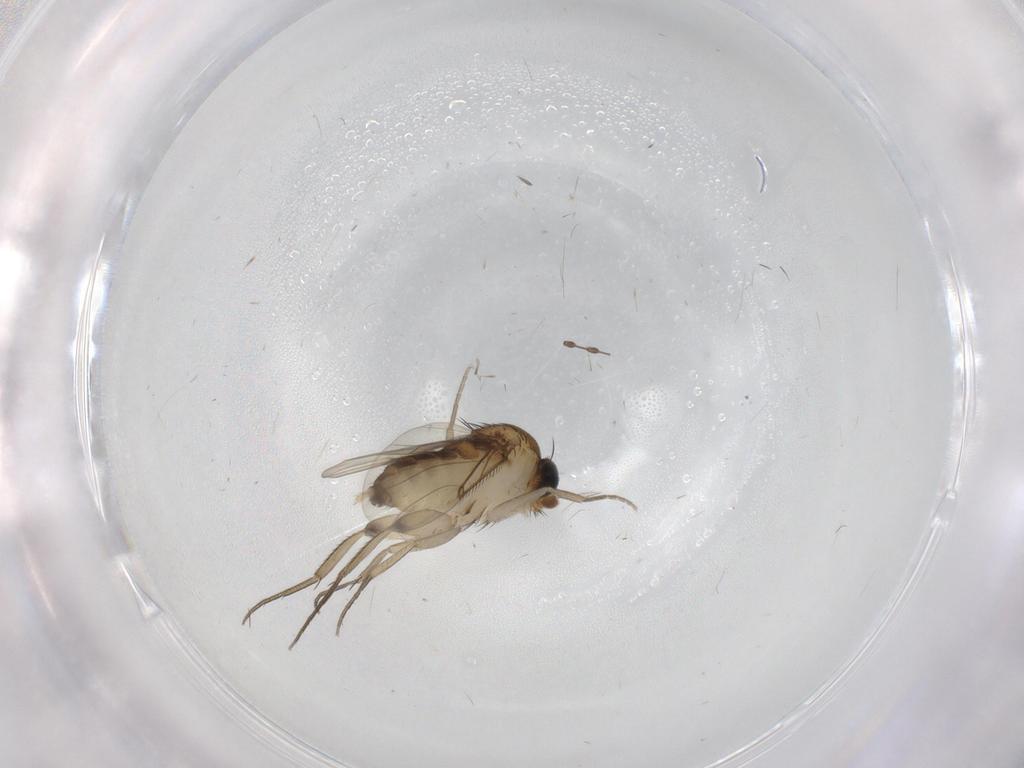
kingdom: Animalia
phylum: Arthropoda
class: Insecta
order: Diptera
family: Phoridae
